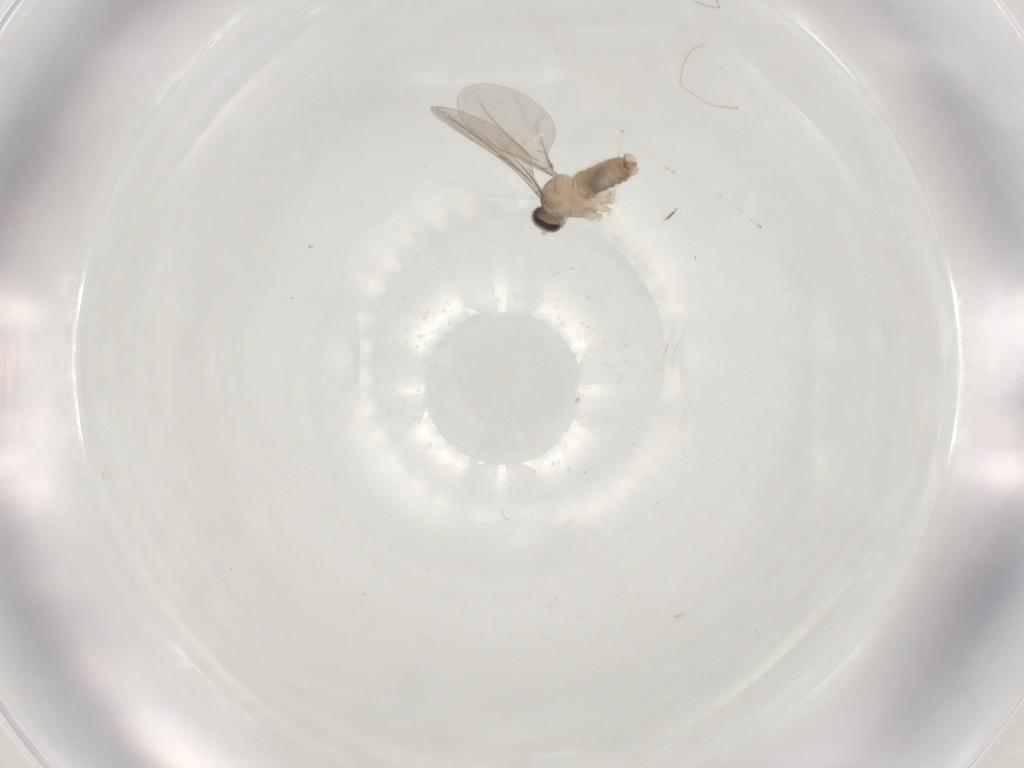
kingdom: Animalia
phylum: Arthropoda
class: Insecta
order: Diptera
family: Cecidomyiidae
